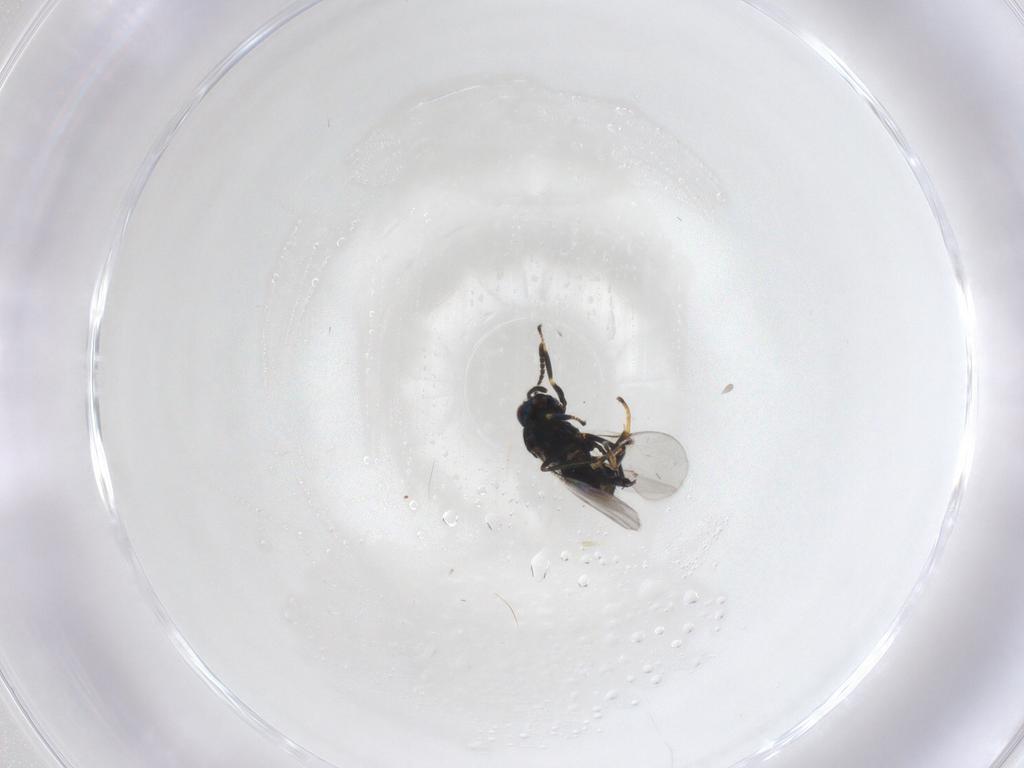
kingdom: Animalia
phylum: Arthropoda
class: Insecta
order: Hymenoptera
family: Encyrtidae
